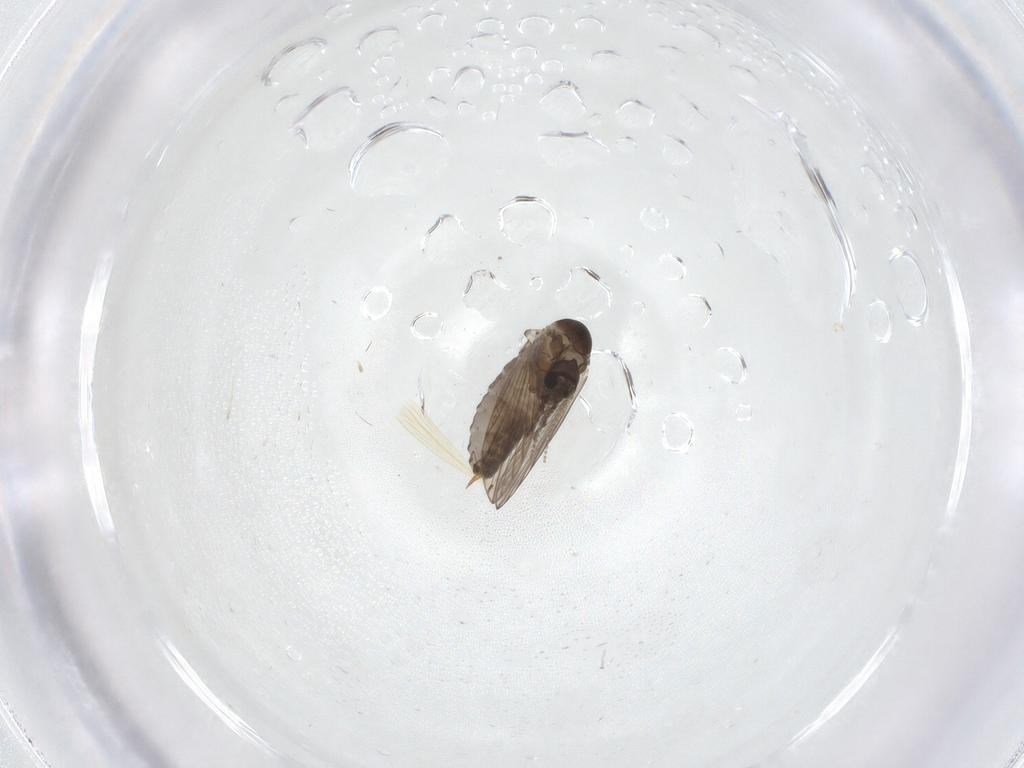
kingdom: Animalia
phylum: Arthropoda
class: Insecta
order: Diptera
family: Psychodidae
